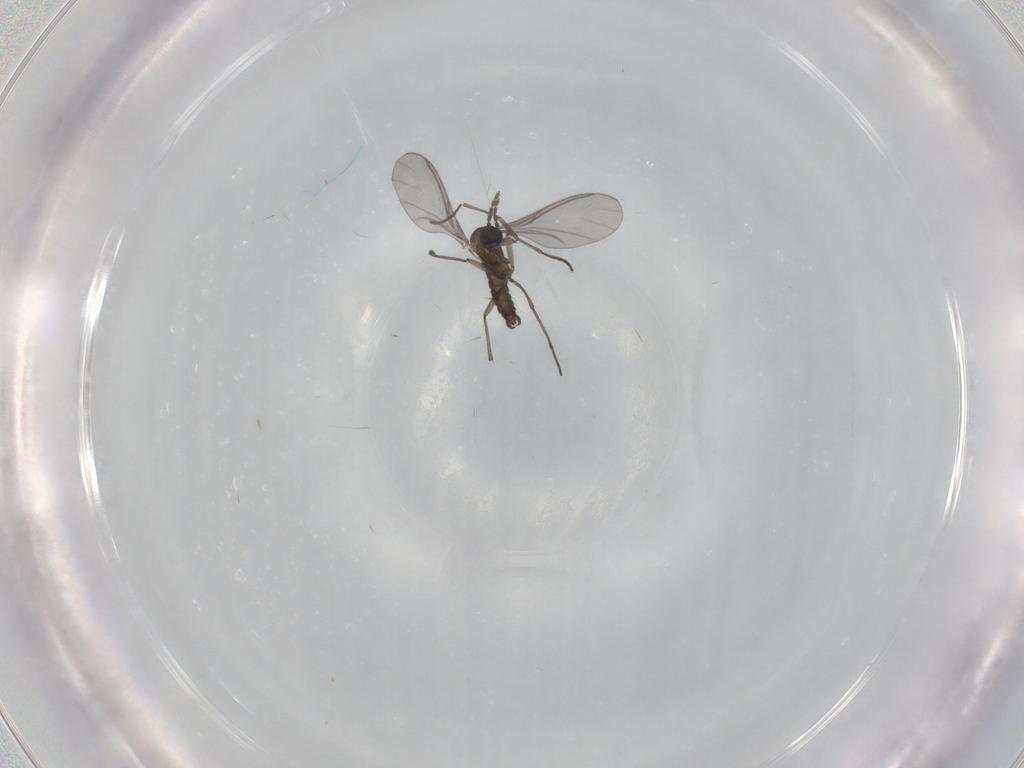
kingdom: Animalia
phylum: Arthropoda
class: Insecta
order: Diptera
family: Sciaridae
